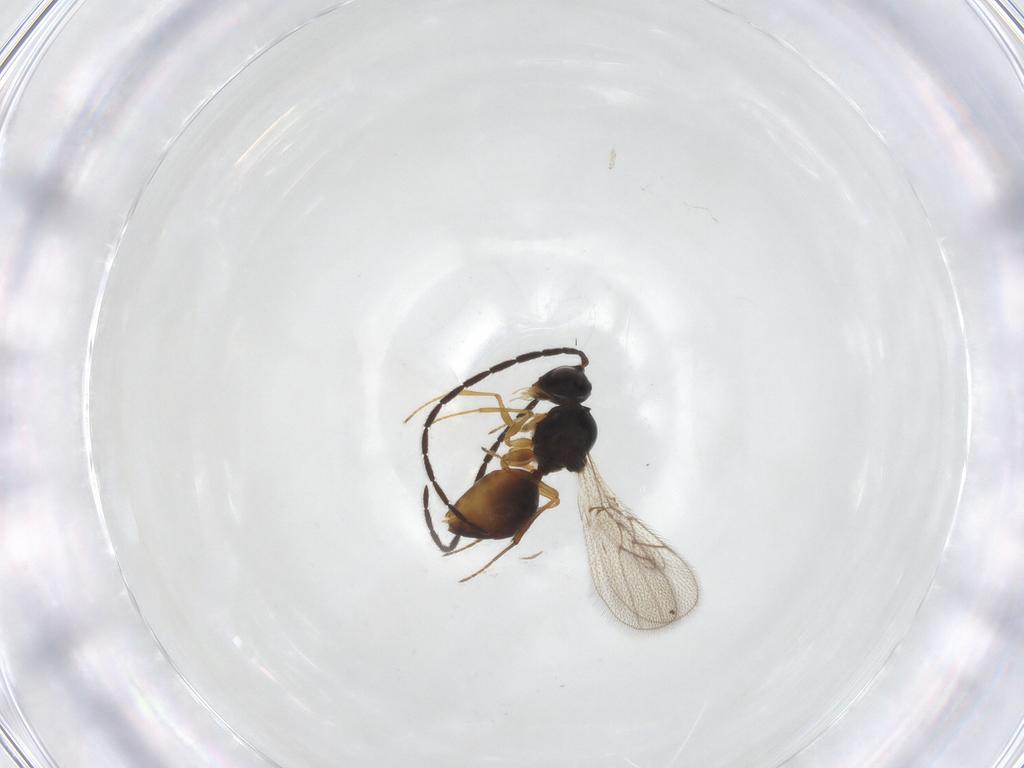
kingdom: Animalia
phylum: Arthropoda
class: Insecta
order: Hymenoptera
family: Figitidae
